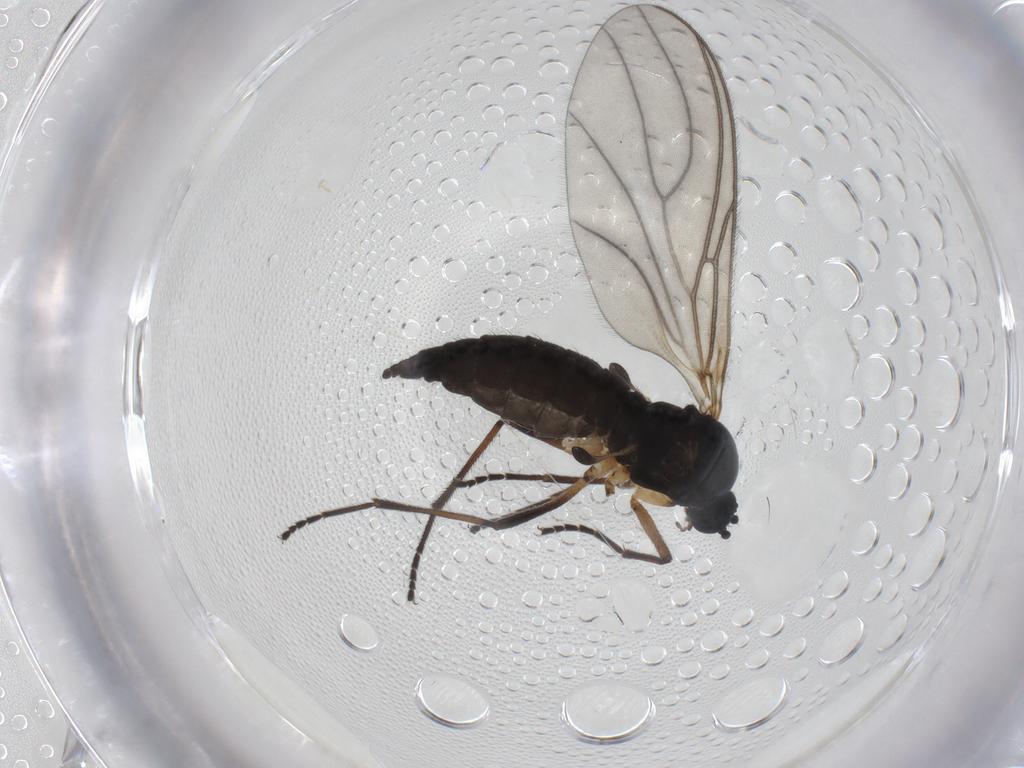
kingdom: Animalia
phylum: Arthropoda
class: Insecta
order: Diptera
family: Sciaridae
